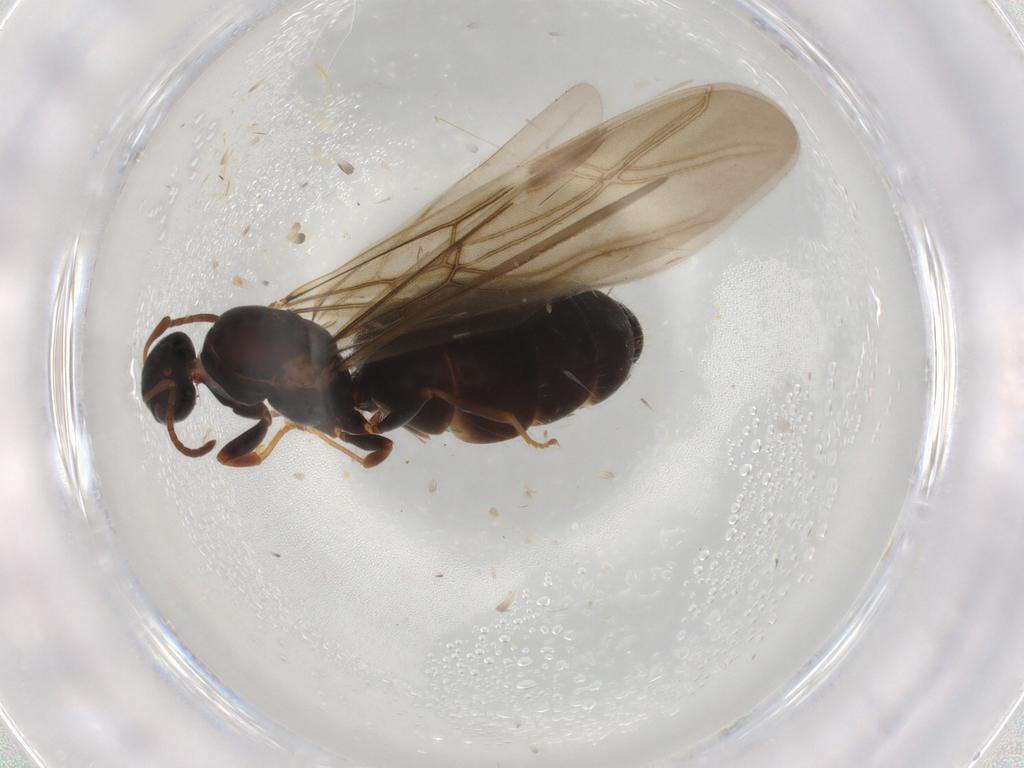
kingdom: Animalia
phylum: Arthropoda
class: Insecta
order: Hymenoptera
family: Formicidae
